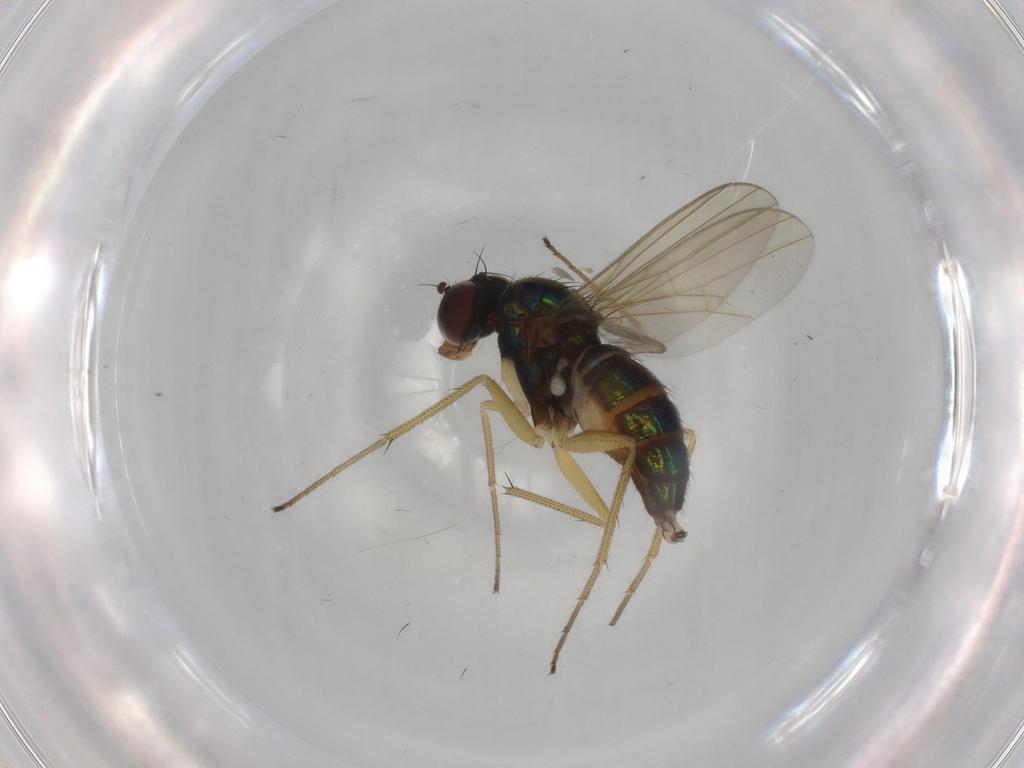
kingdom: Animalia
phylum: Arthropoda
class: Insecta
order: Diptera
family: Dolichopodidae
